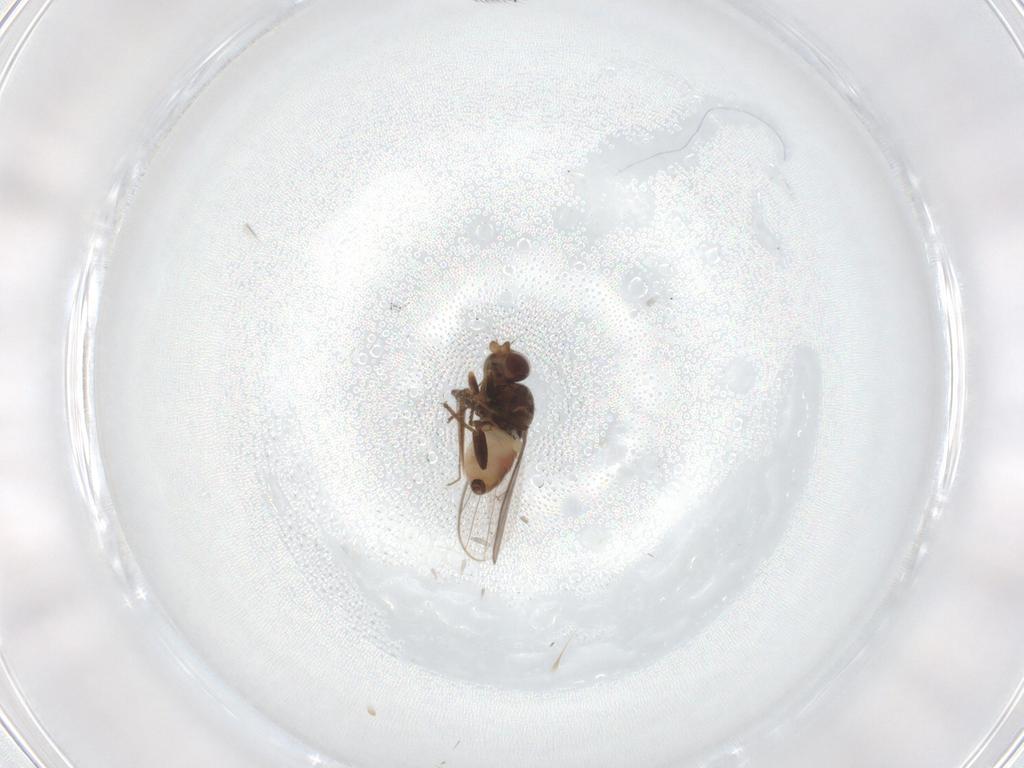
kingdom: Animalia
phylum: Arthropoda
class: Insecta
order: Diptera
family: Chloropidae
